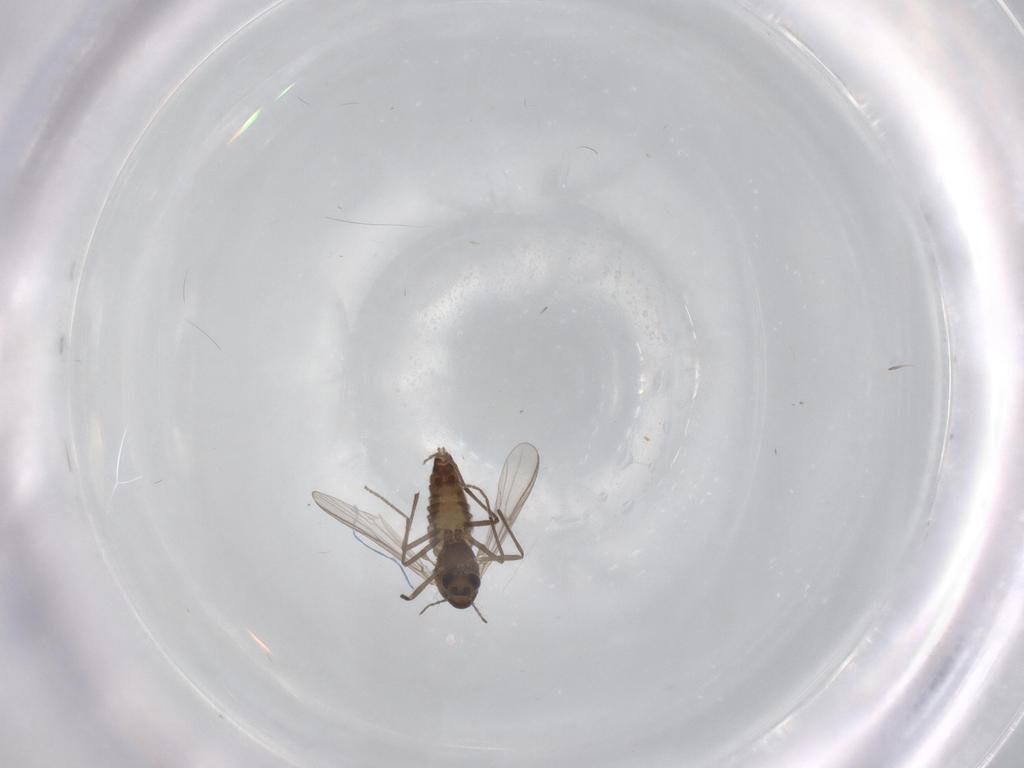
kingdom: Animalia
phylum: Arthropoda
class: Insecta
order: Diptera
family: Chironomidae
